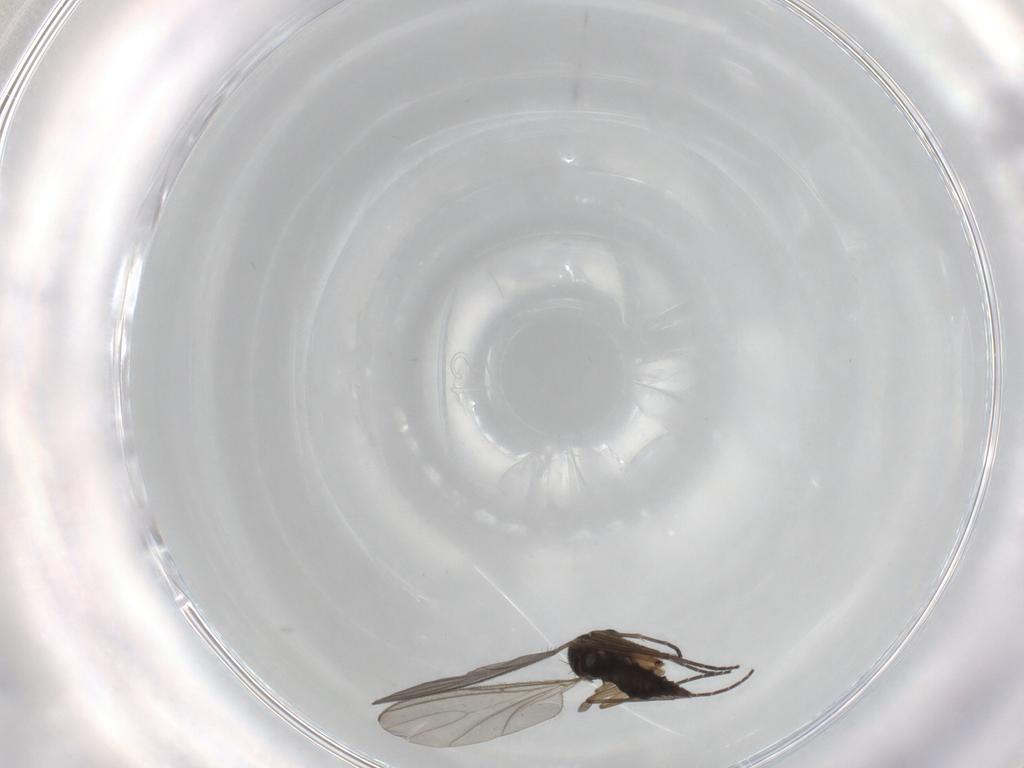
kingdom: Animalia
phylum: Arthropoda
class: Insecta
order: Diptera
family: Sciaridae
